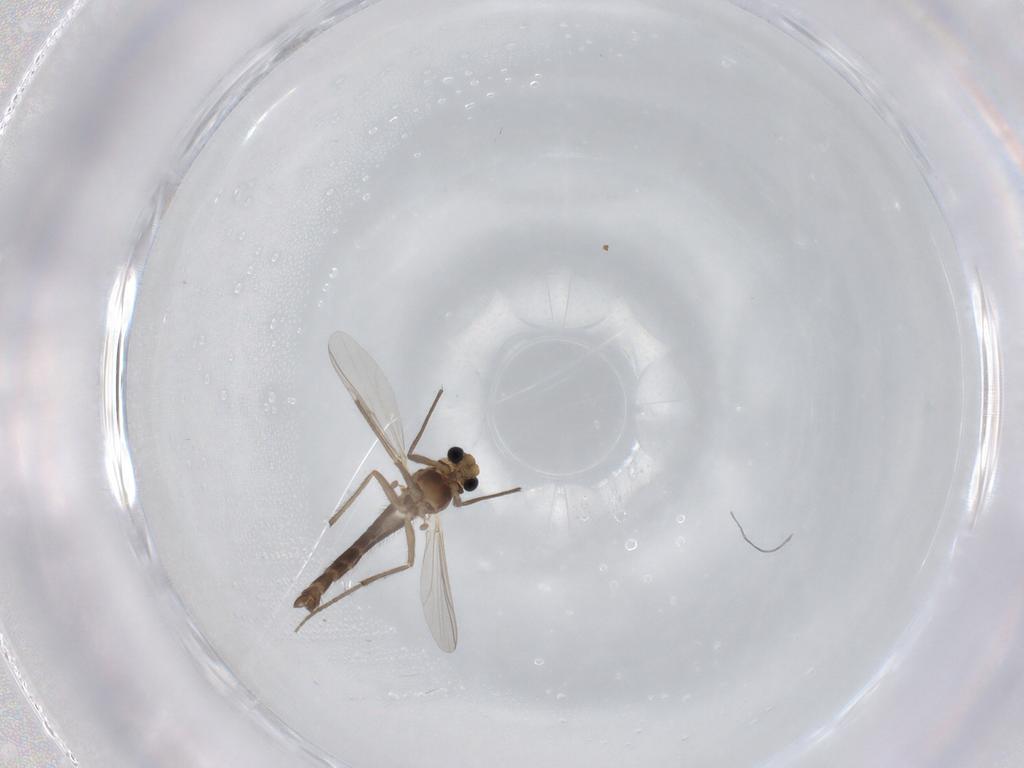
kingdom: Animalia
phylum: Arthropoda
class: Insecta
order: Diptera
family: Chironomidae
